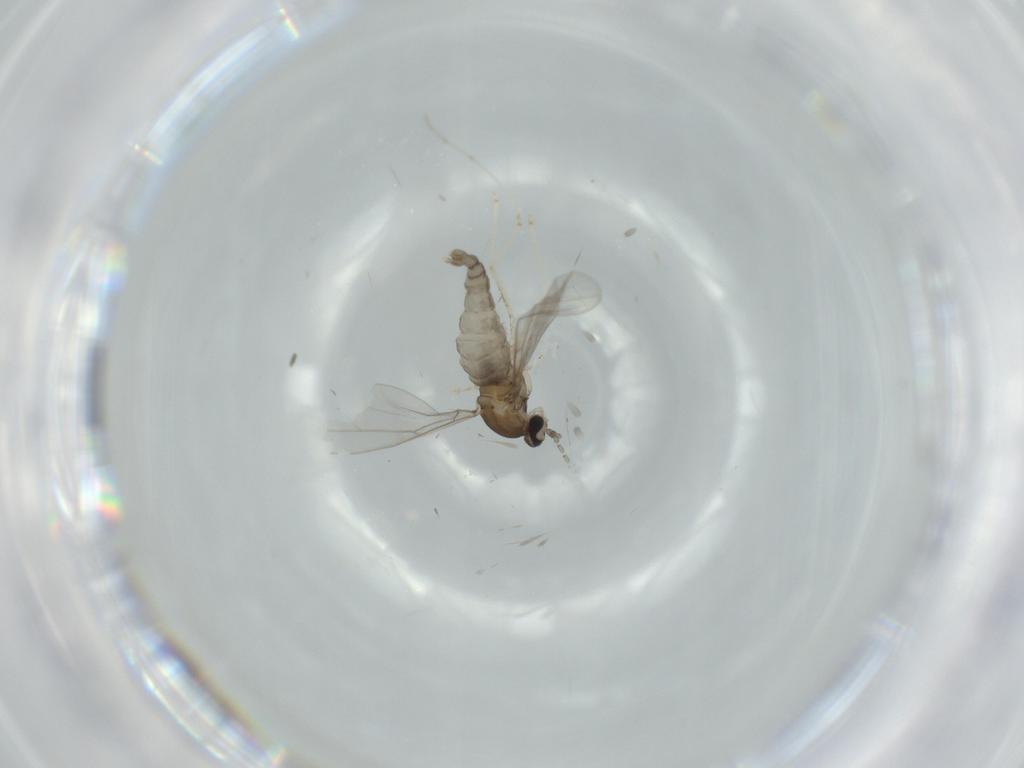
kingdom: Animalia
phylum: Arthropoda
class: Insecta
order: Diptera
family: Cecidomyiidae
